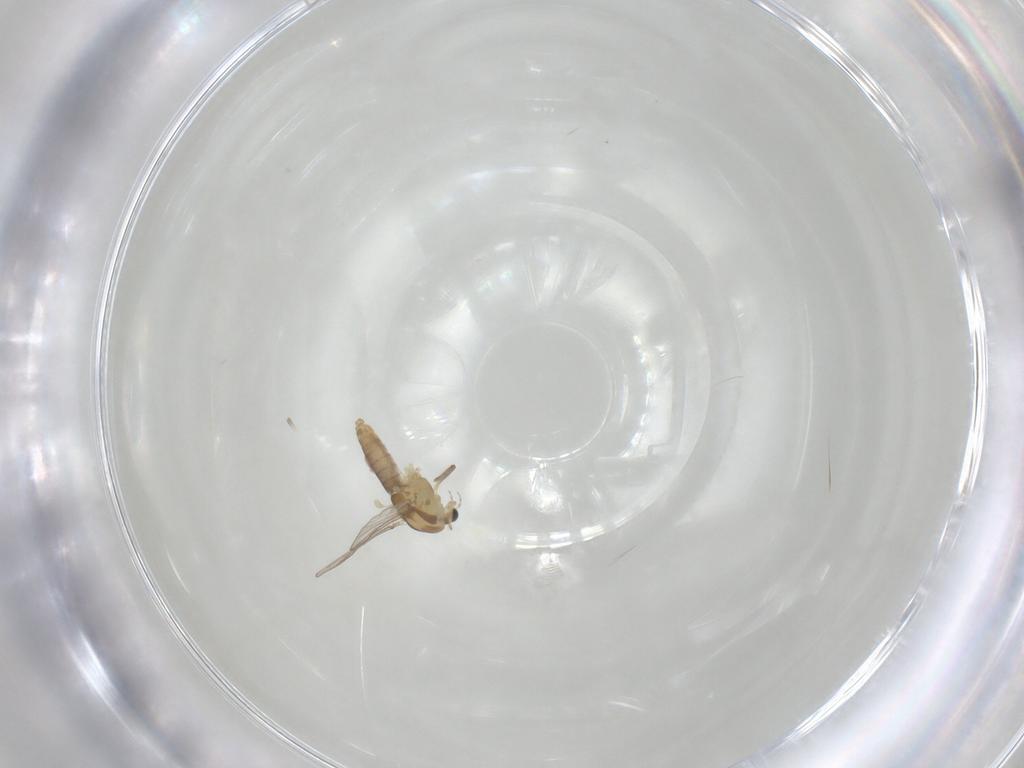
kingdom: Animalia
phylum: Arthropoda
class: Insecta
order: Diptera
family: Chironomidae
